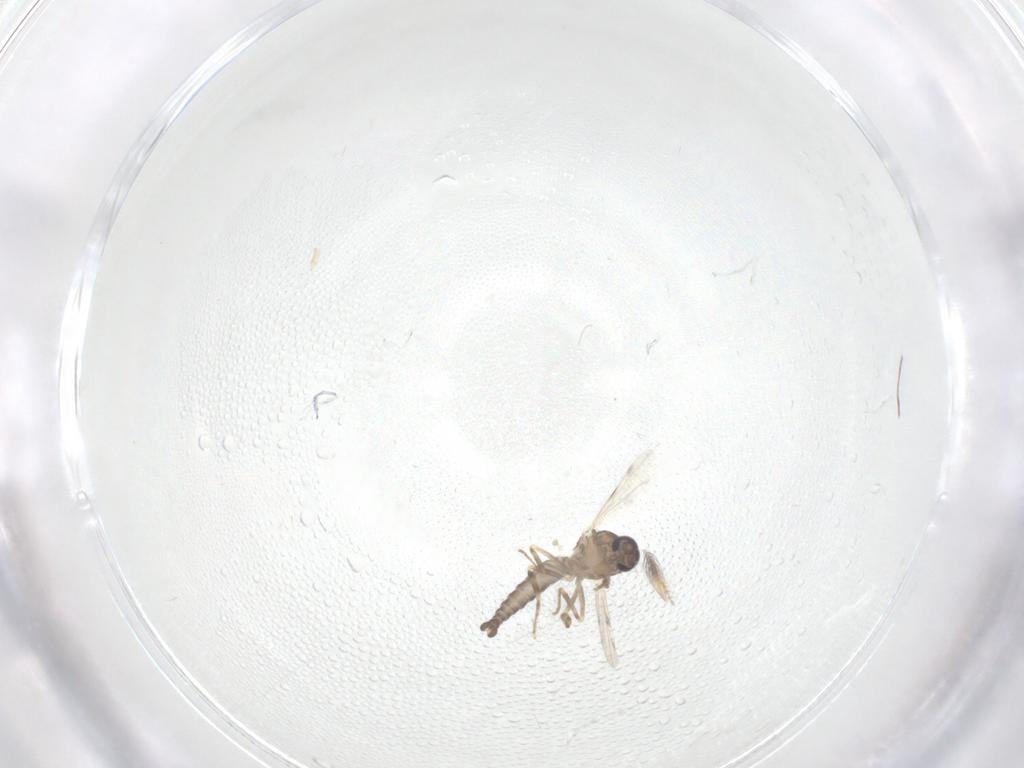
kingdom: Animalia
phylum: Arthropoda
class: Insecta
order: Diptera
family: Ceratopogonidae
